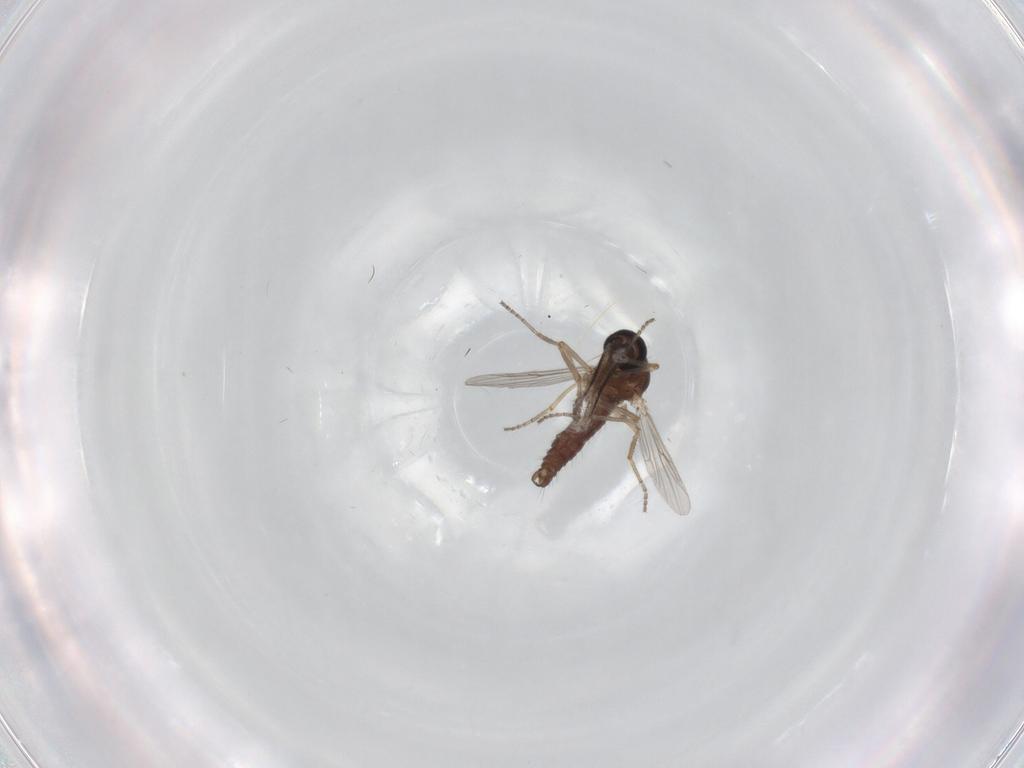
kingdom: Animalia
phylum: Arthropoda
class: Insecta
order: Diptera
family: Ceratopogonidae
